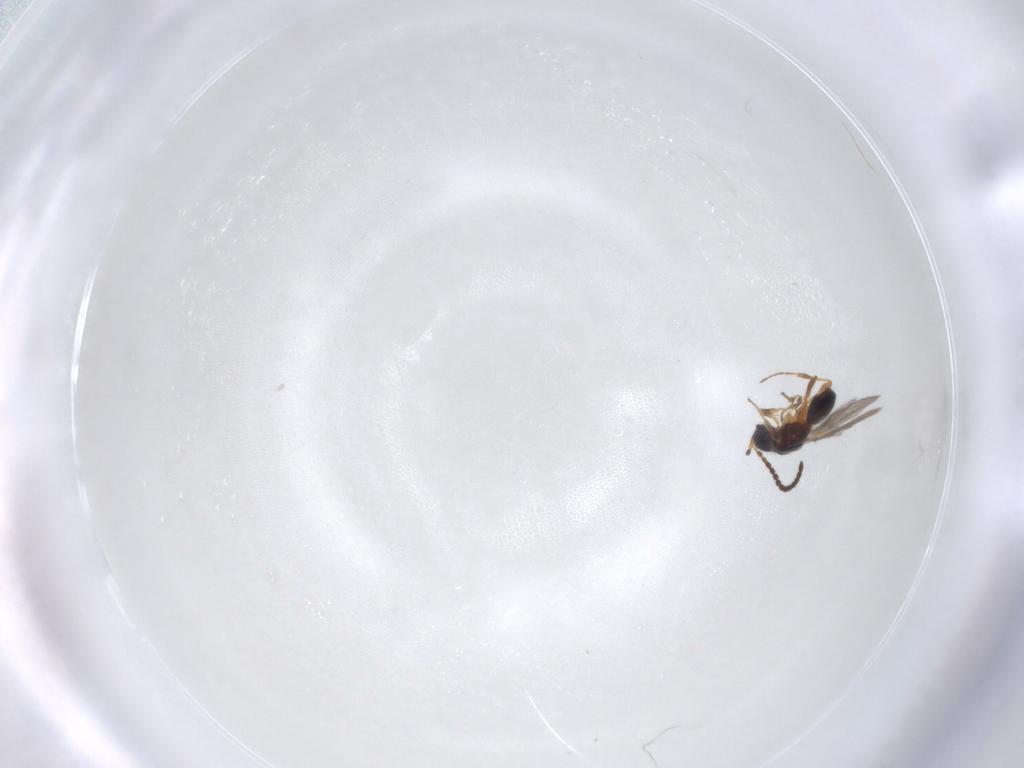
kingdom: Animalia
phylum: Arthropoda
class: Insecta
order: Hymenoptera
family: Diapriidae
